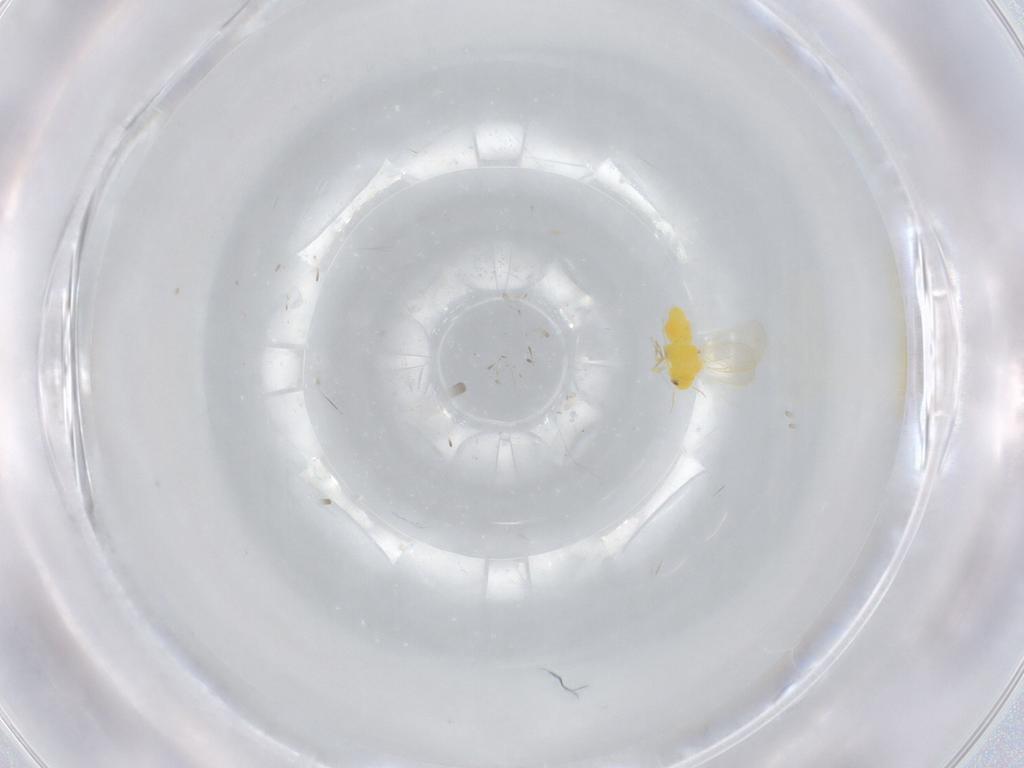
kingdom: Animalia
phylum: Arthropoda
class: Insecta
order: Hemiptera
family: Aleyrodidae
